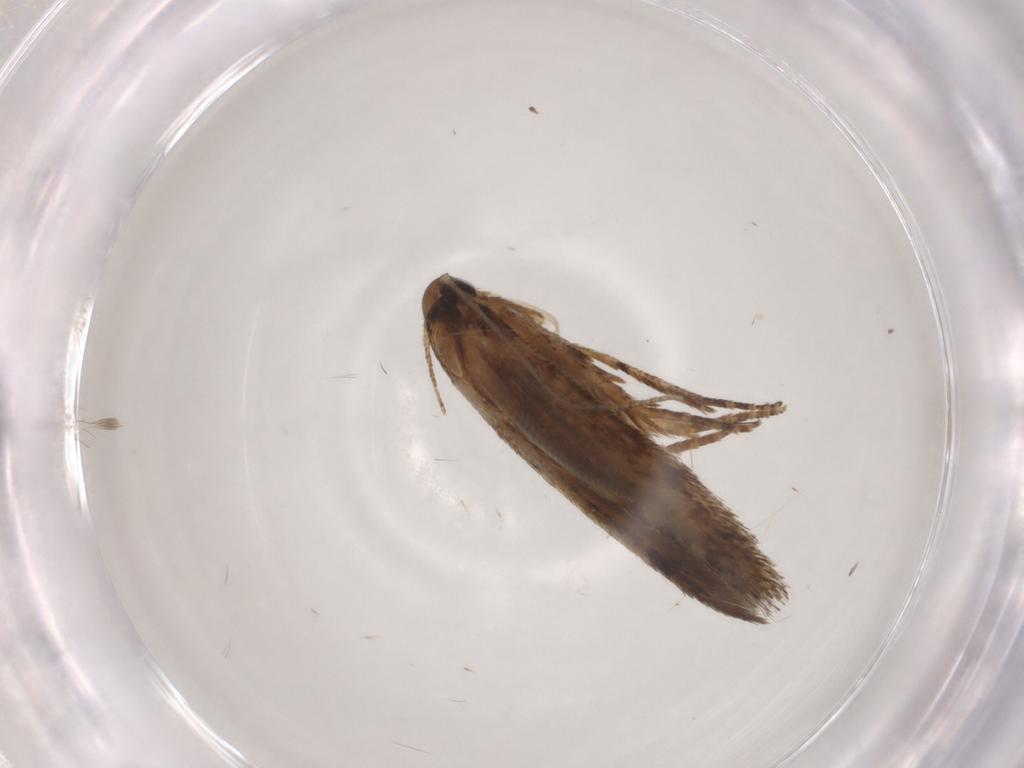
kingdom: Animalia
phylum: Arthropoda
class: Insecta
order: Lepidoptera
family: Cosmopterigidae
